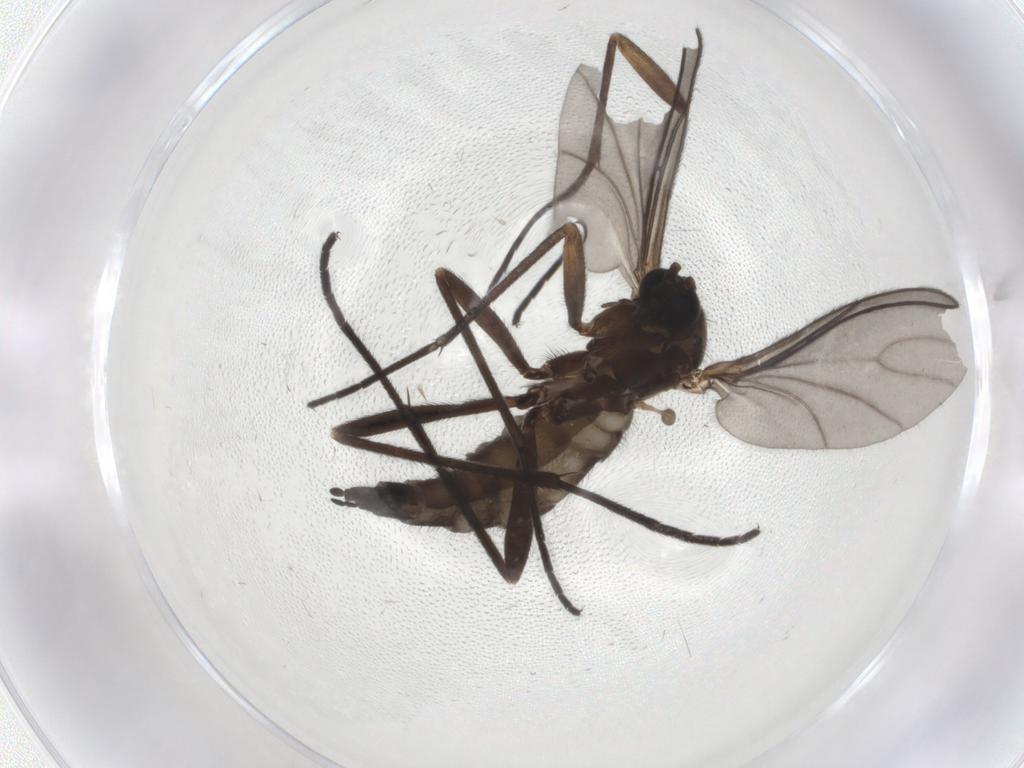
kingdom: Animalia
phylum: Arthropoda
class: Insecta
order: Diptera
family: Sciaridae
